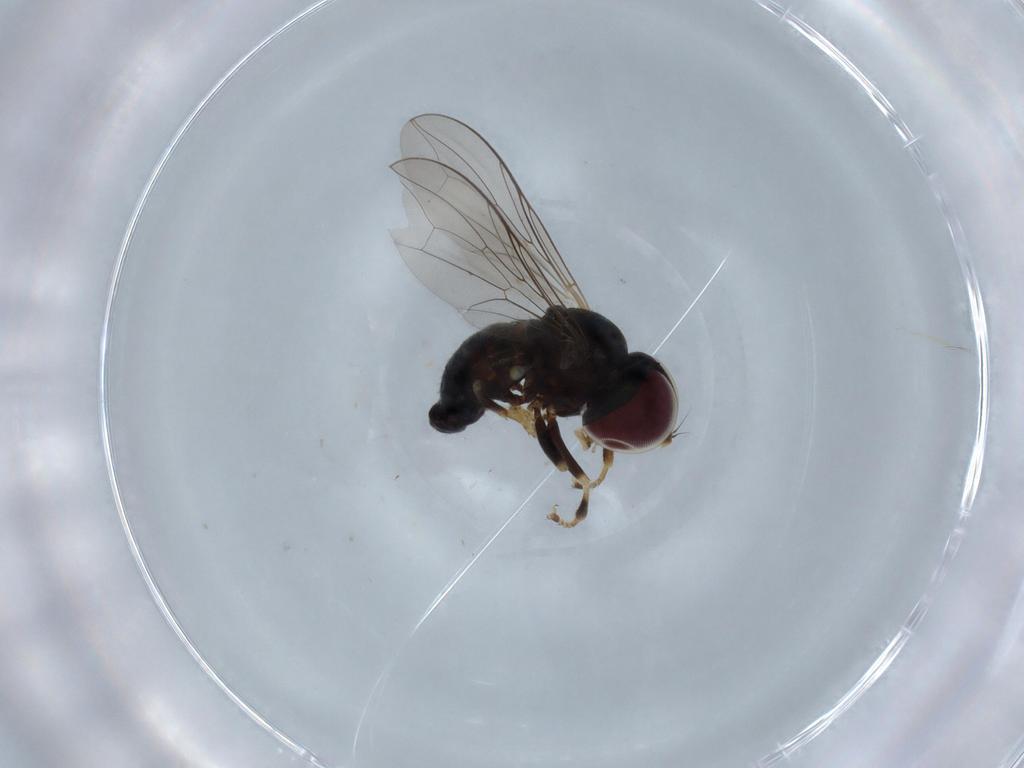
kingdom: Animalia
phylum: Arthropoda
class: Insecta
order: Diptera
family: Pipunculidae
